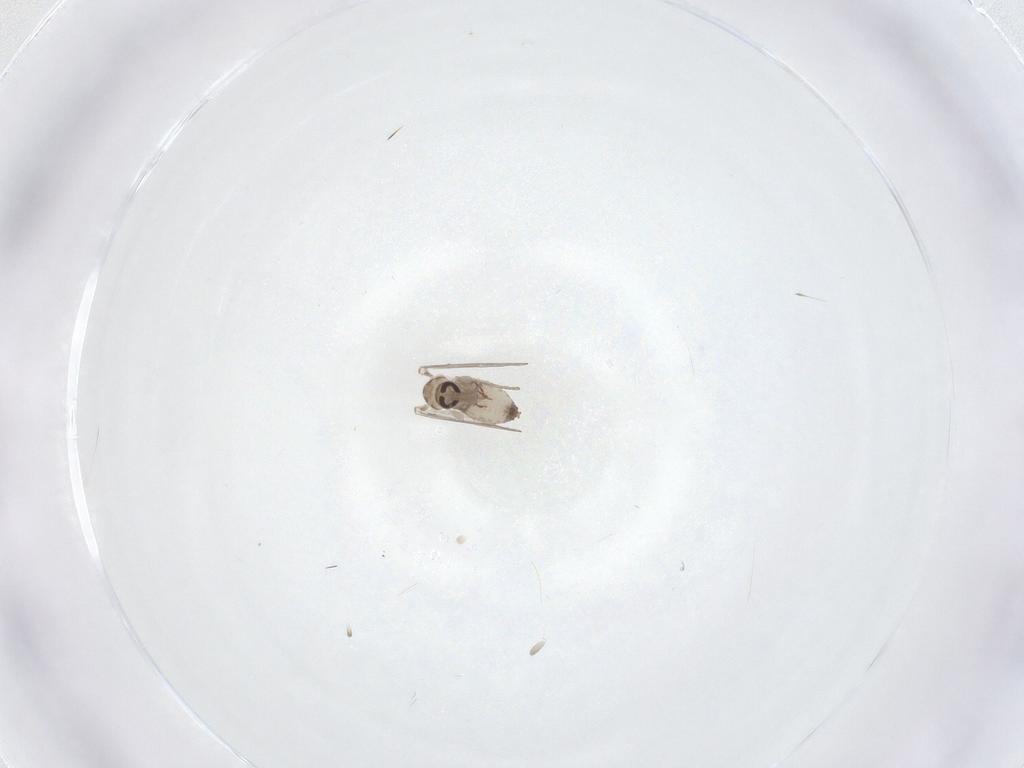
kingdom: Animalia
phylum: Arthropoda
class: Insecta
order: Diptera
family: Psychodidae
